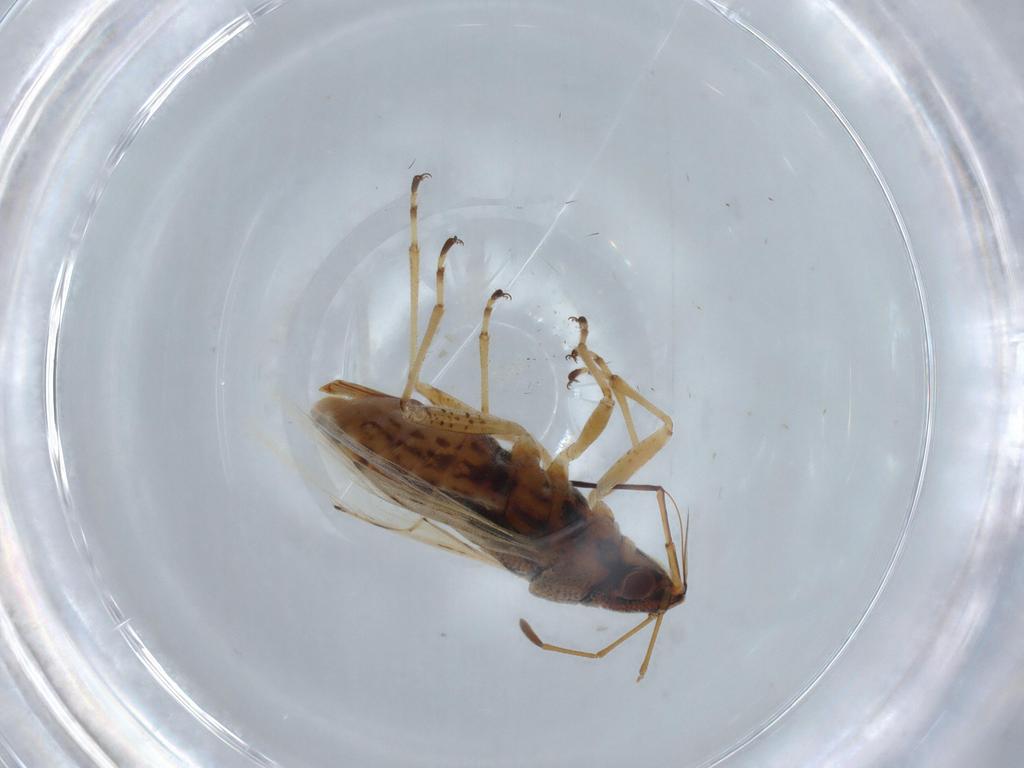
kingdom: Animalia
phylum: Arthropoda
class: Insecta
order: Hemiptera
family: Lygaeidae
